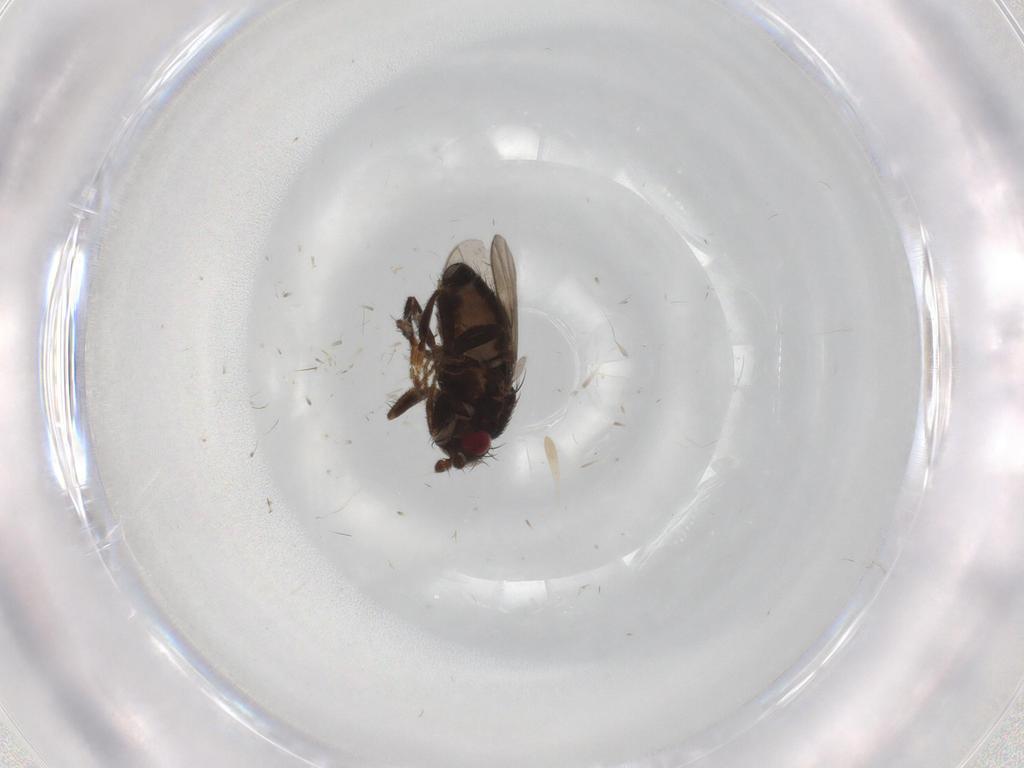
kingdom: Animalia
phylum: Arthropoda
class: Insecta
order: Diptera
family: Sphaeroceridae
